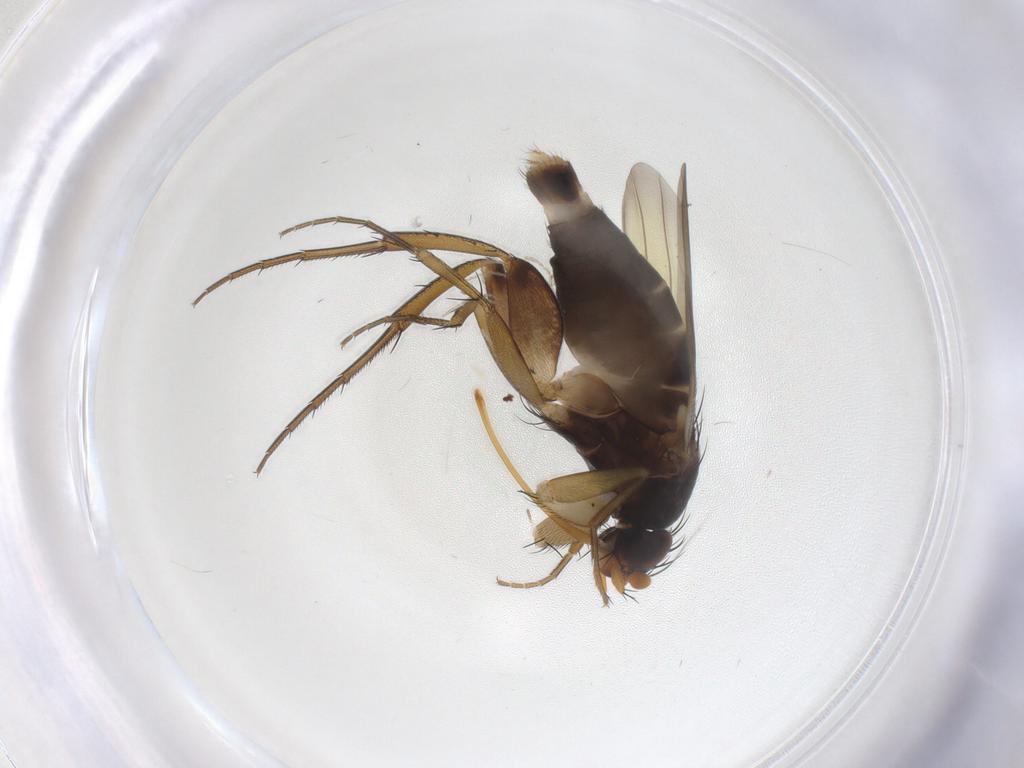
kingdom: Animalia
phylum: Arthropoda
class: Insecta
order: Diptera
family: Phoridae
